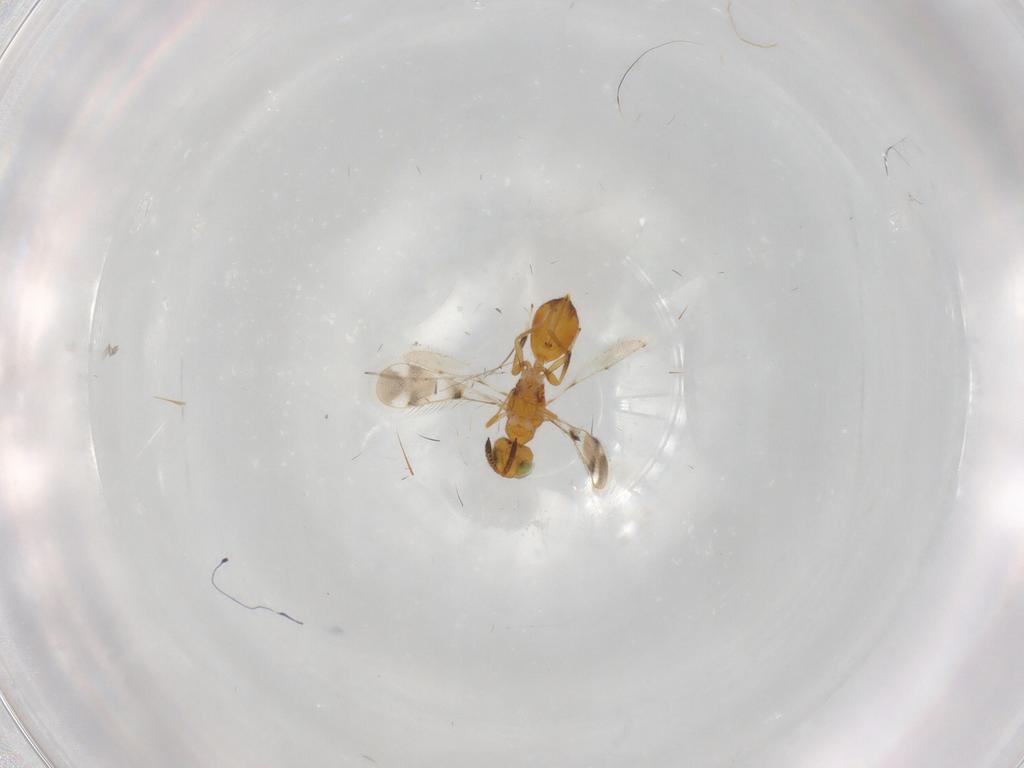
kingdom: Animalia
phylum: Arthropoda
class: Insecta
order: Hymenoptera
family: Pteromalidae
